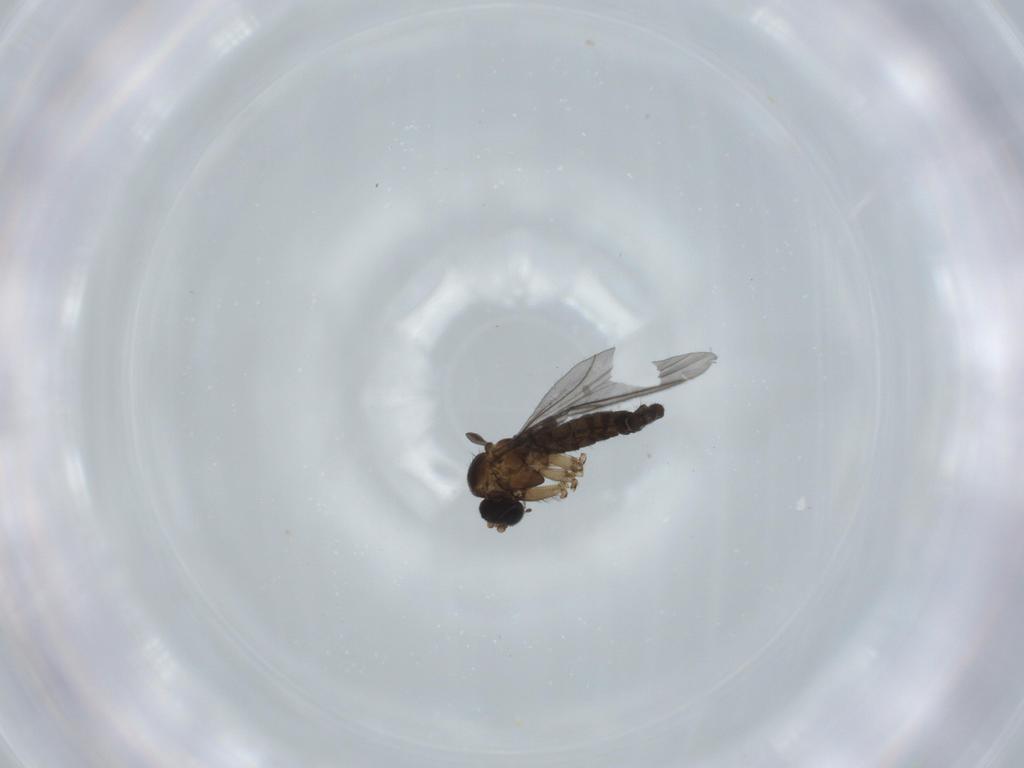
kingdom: Animalia
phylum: Arthropoda
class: Insecta
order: Diptera
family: Sciaridae
